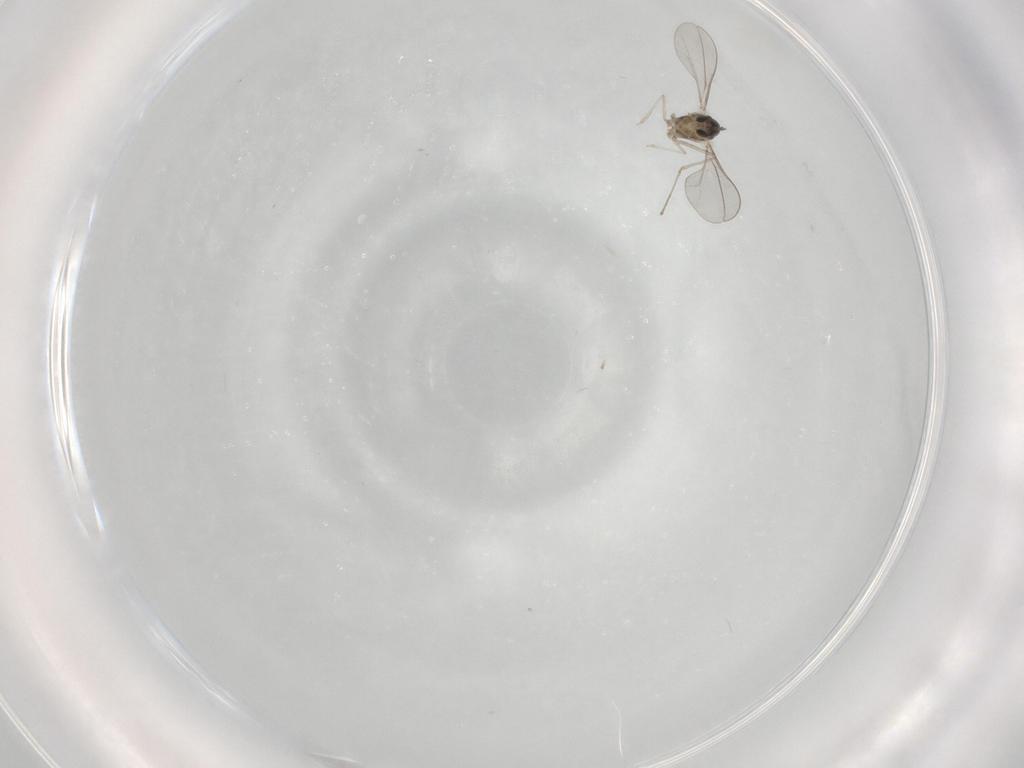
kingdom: Animalia
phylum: Arthropoda
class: Insecta
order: Diptera
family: Cecidomyiidae
